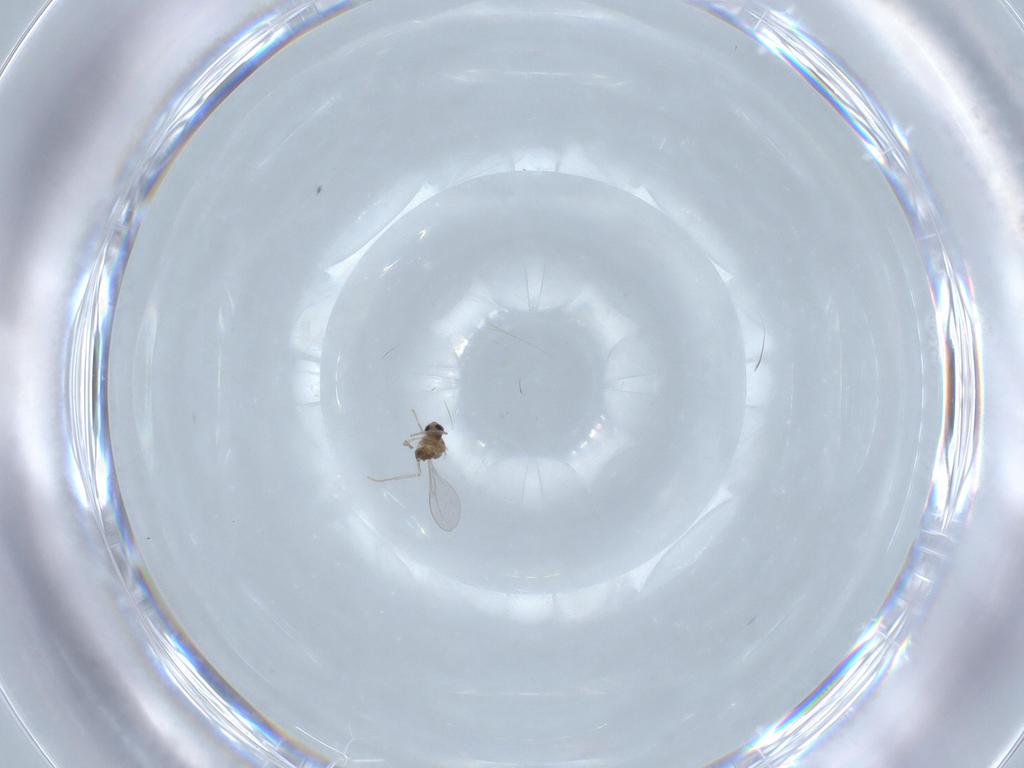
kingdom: Animalia
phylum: Arthropoda
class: Insecta
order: Diptera
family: Cecidomyiidae
